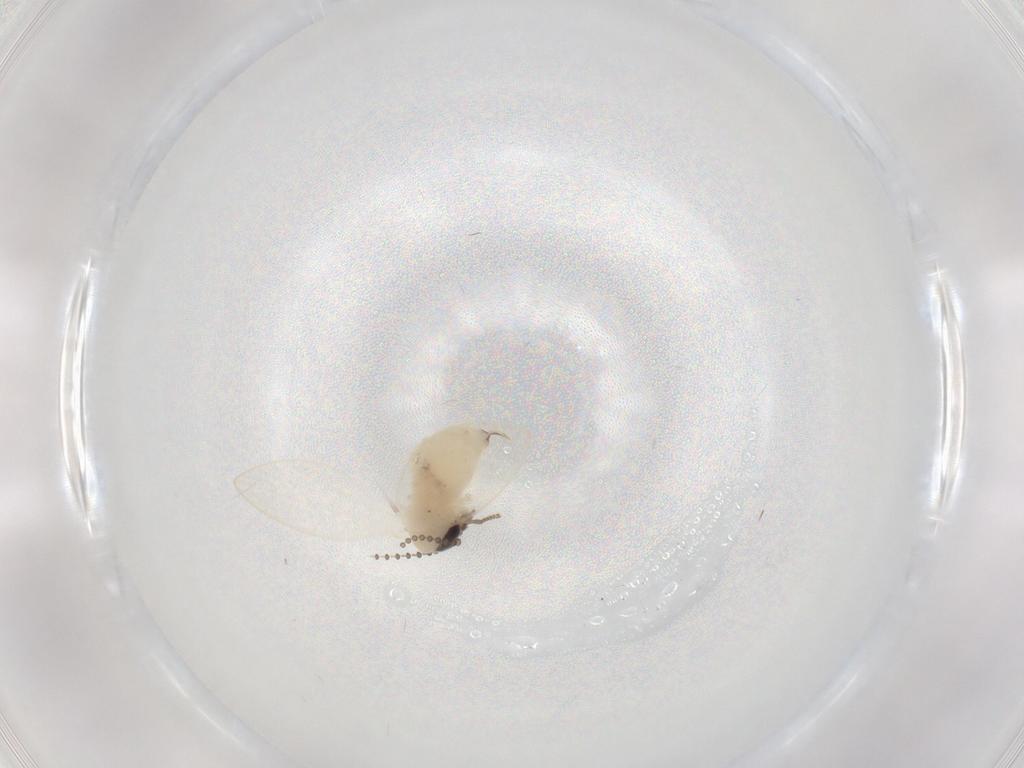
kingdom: Animalia
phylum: Arthropoda
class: Insecta
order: Diptera
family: Psychodidae
